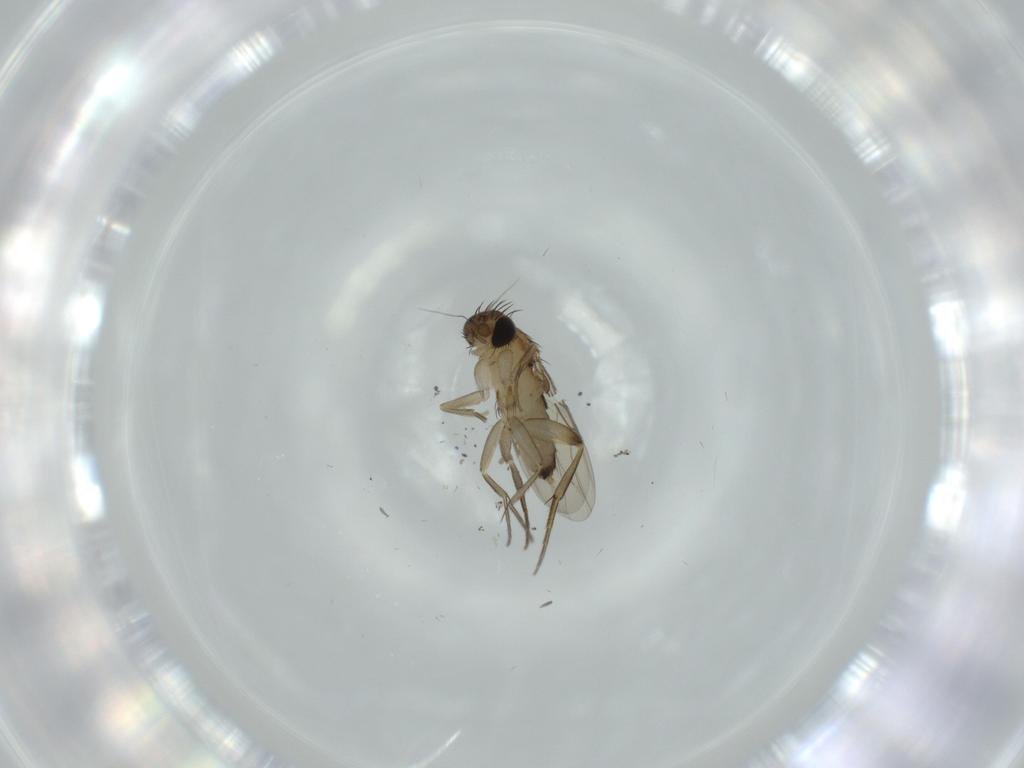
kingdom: Animalia
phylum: Arthropoda
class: Insecta
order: Diptera
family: Phoridae
